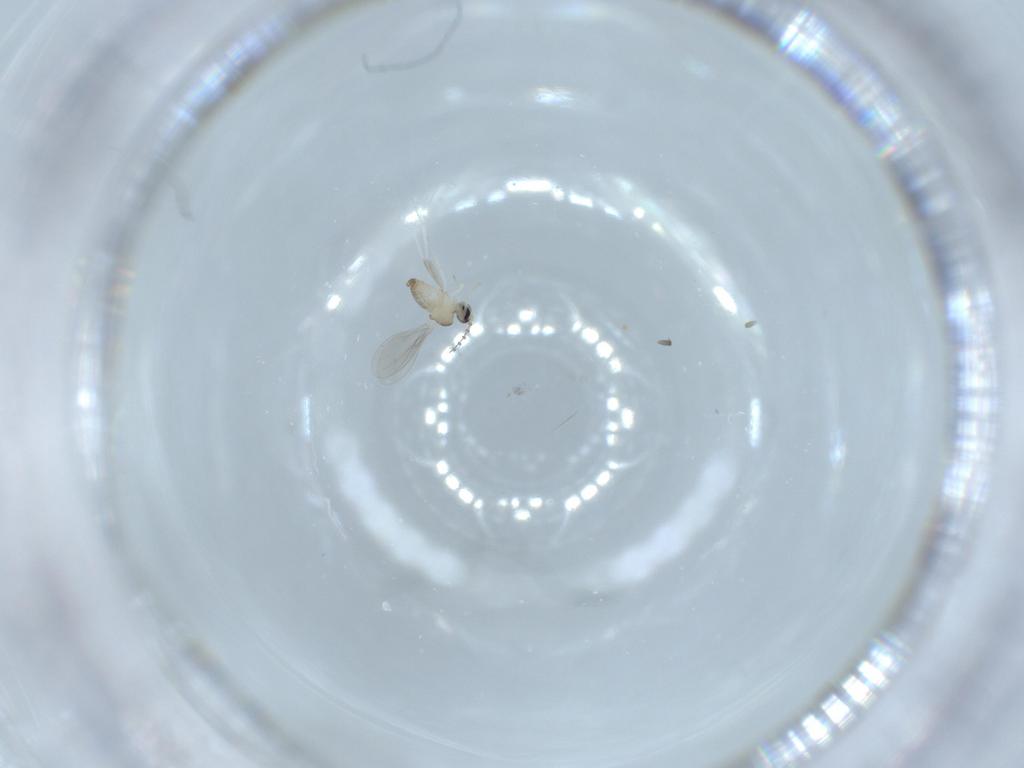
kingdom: Animalia
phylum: Arthropoda
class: Insecta
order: Diptera
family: Cecidomyiidae
